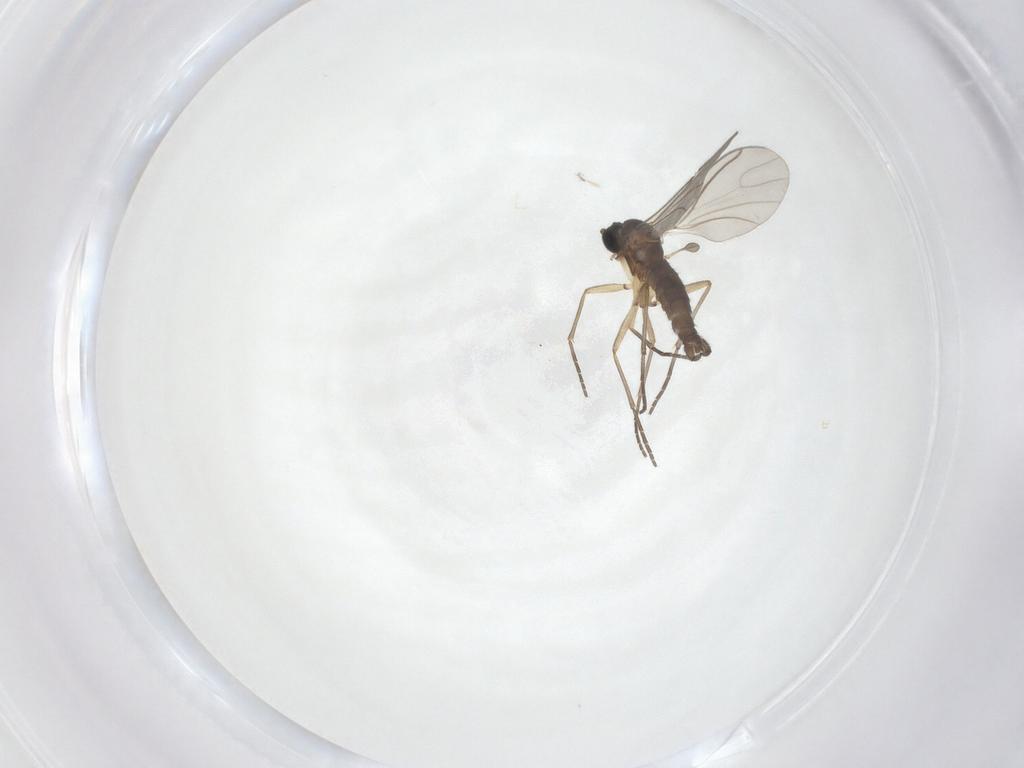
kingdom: Animalia
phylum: Arthropoda
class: Insecta
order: Diptera
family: Sciaridae
